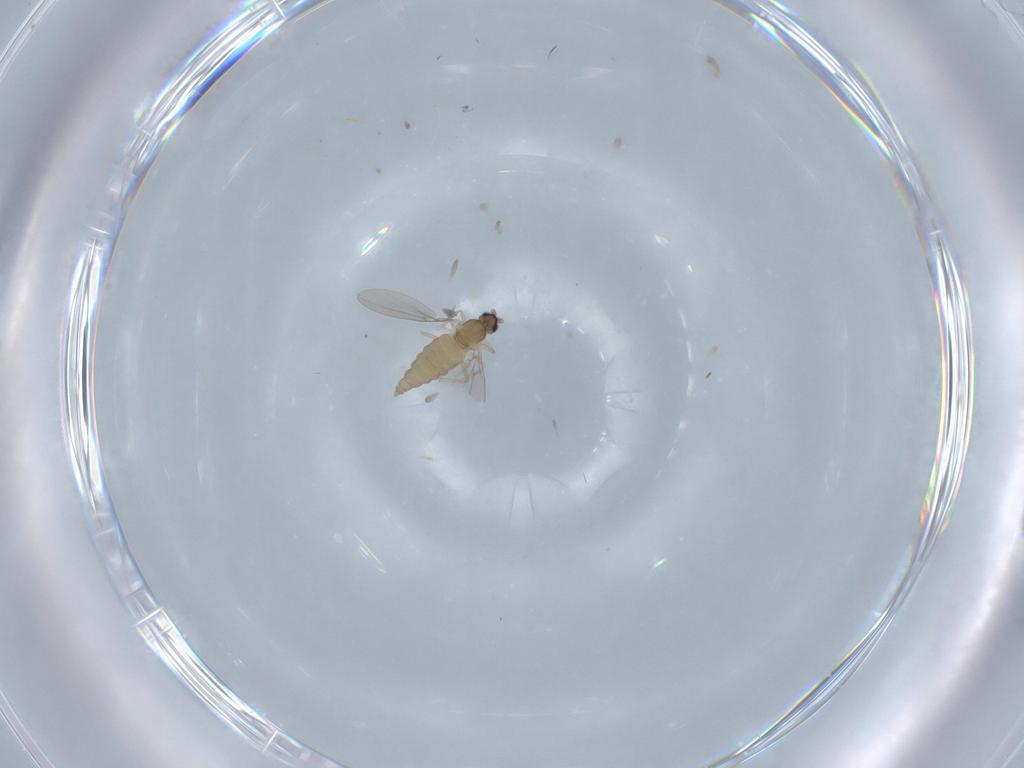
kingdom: Animalia
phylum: Arthropoda
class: Insecta
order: Diptera
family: Cecidomyiidae
